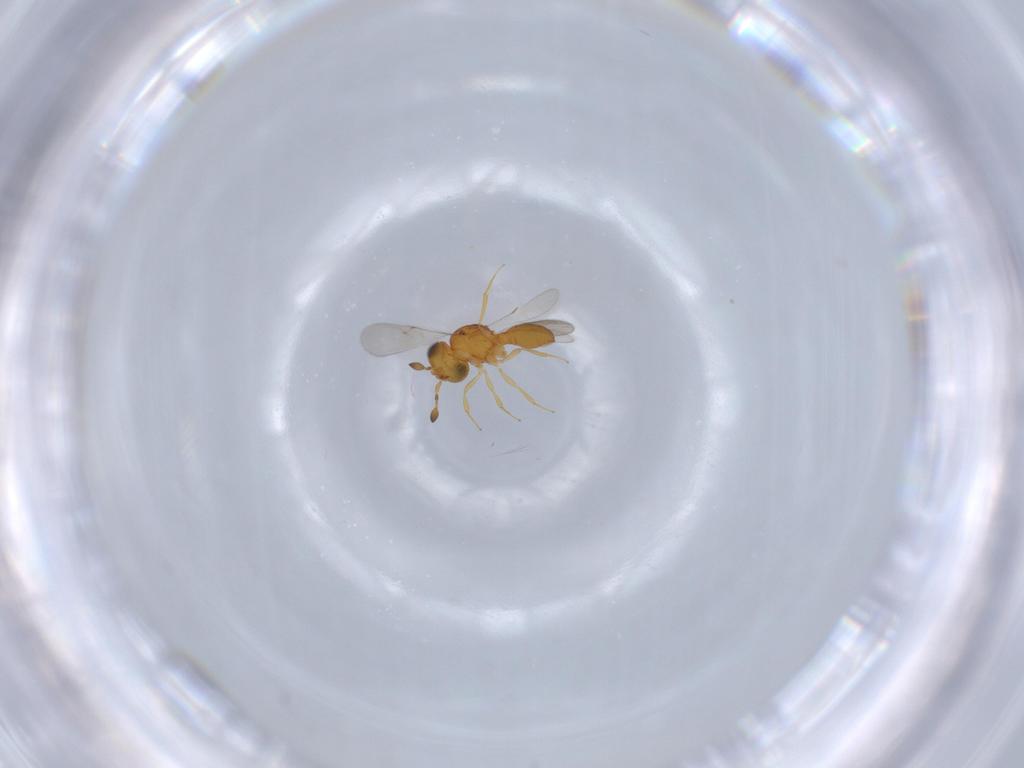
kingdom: Animalia
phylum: Arthropoda
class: Insecta
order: Hymenoptera
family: Scelionidae
